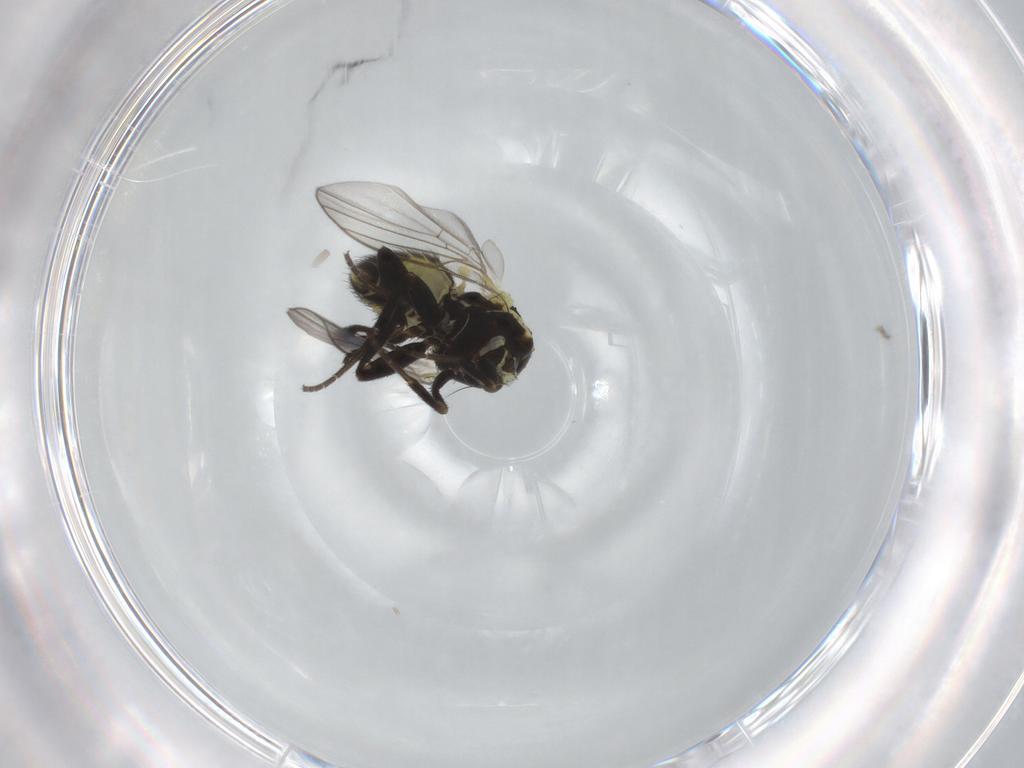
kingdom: Animalia
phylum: Arthropoda
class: Insecta
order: Diptera
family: Agromyzidae
